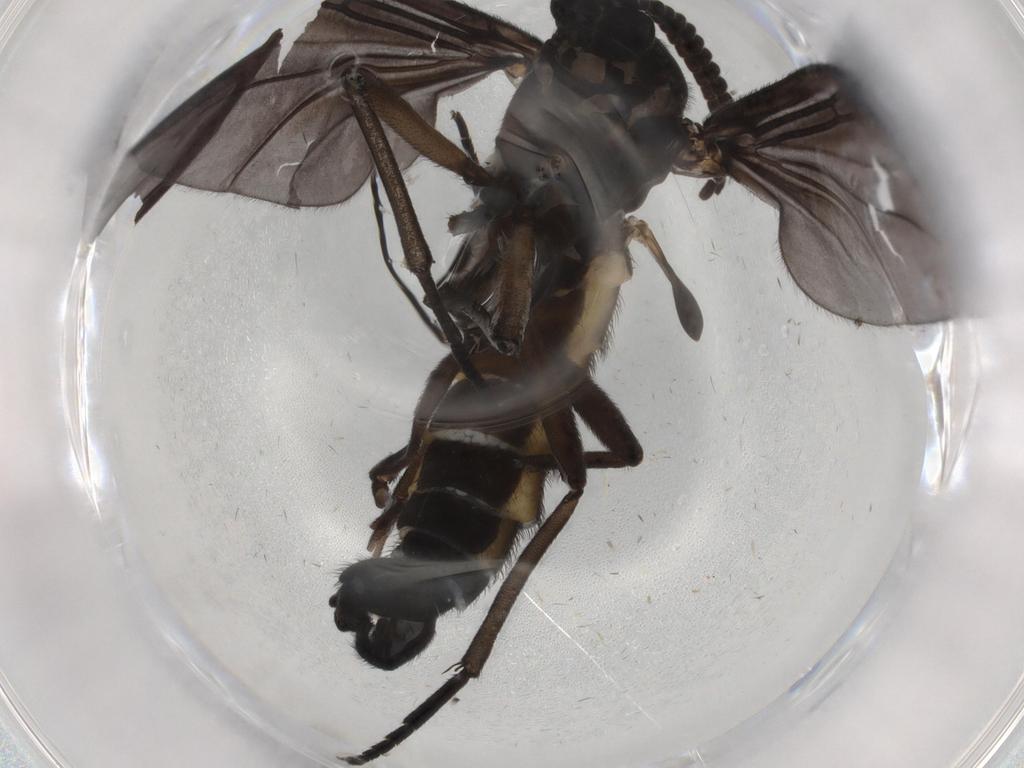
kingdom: Animalia
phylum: Arthropoda
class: Insecta
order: Diptera
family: Sciaridae
